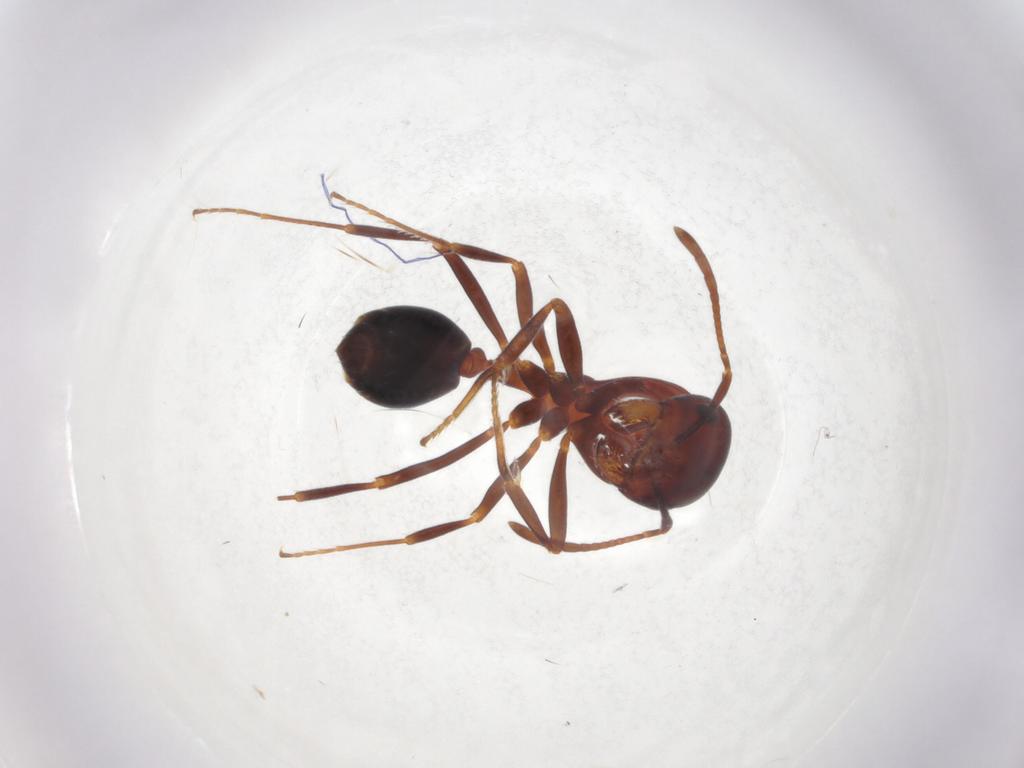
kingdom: Animalia
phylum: Arthropoda
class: Insecta
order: Hymenoptera
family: Formicidae
